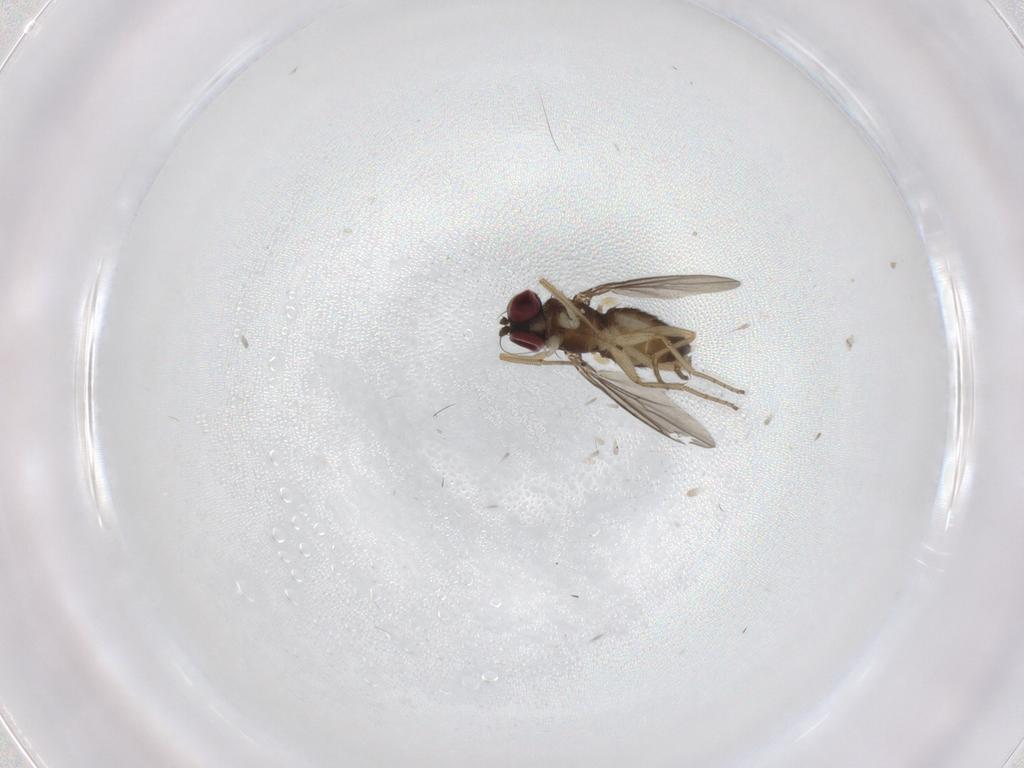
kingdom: Animalia
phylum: Arthropoda
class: Insecta
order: Diptera
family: Dolichopodidae
